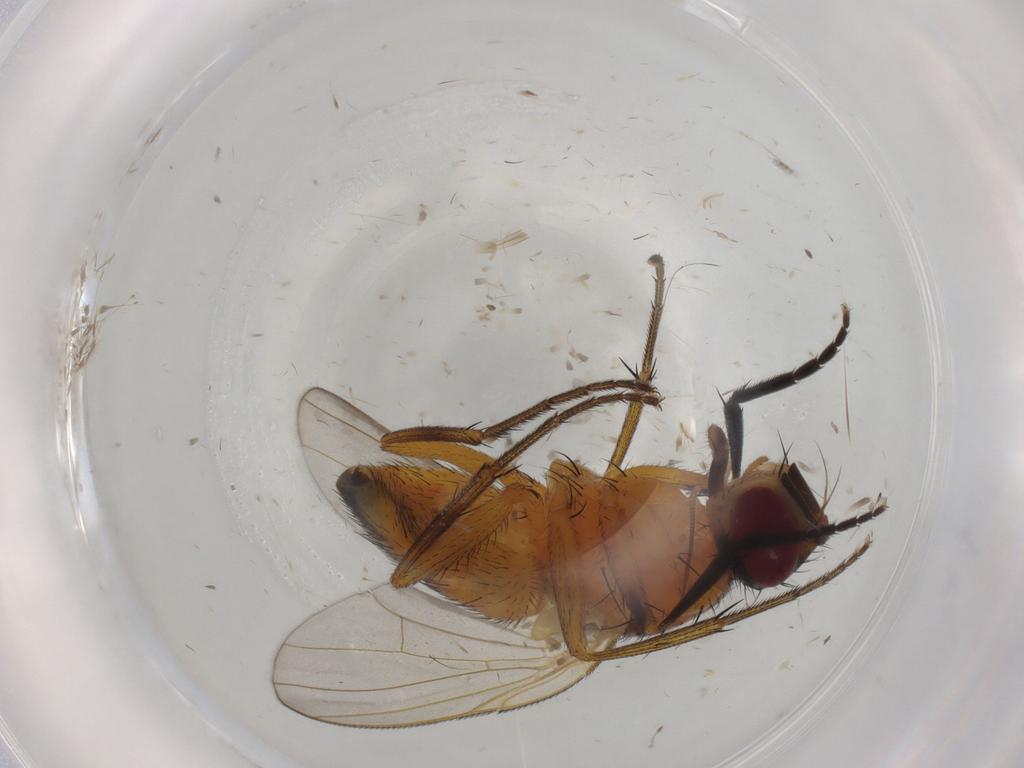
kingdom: Animalia
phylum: Arthropoda
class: Insecta
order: Diptera
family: Muscidae
